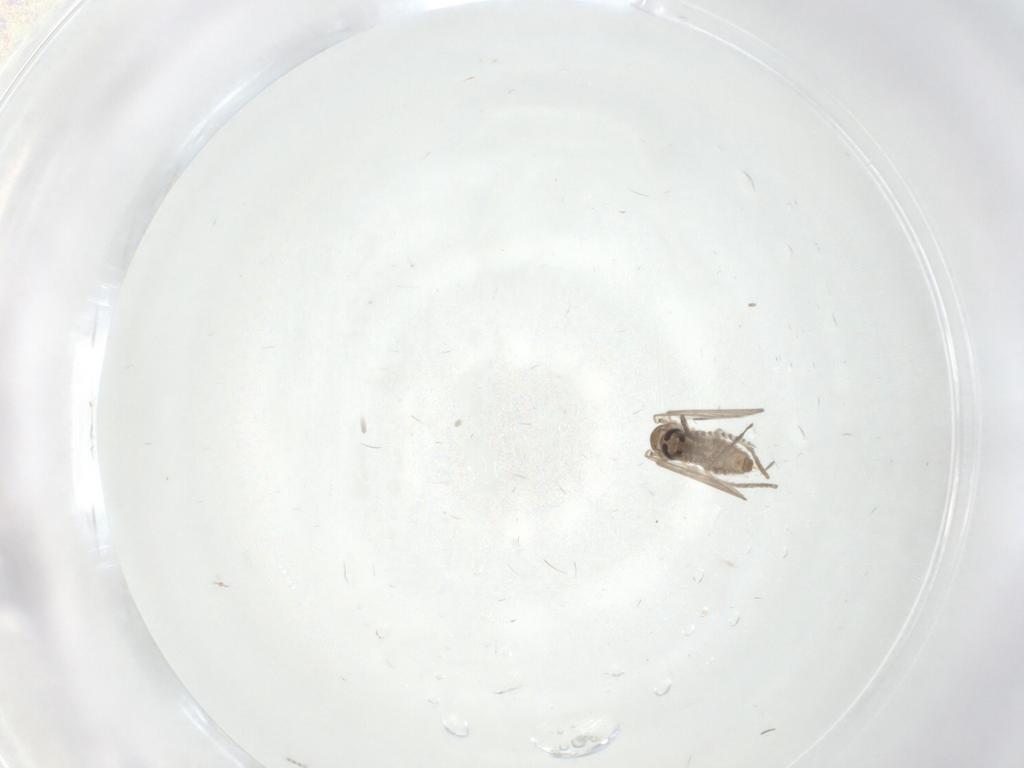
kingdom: Animalia
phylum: Arthropoda
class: Insecta
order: Diptera
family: Psychodidae
